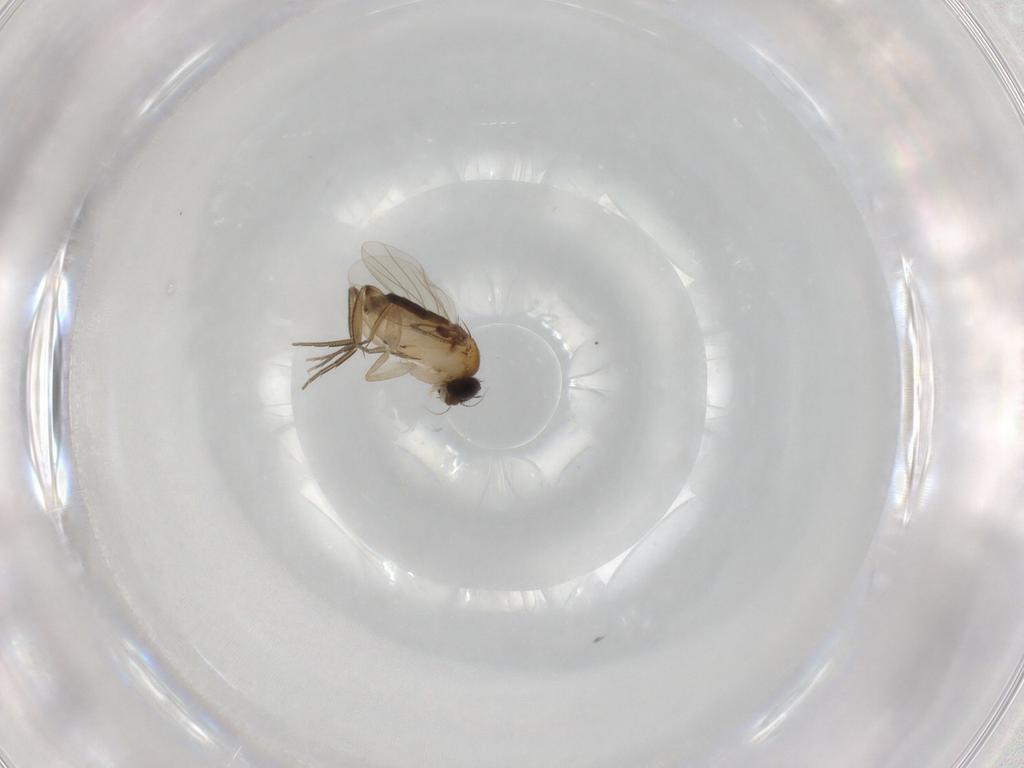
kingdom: Animalia
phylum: Arthropoda
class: Insecta
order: Diptera
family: Phoridae
